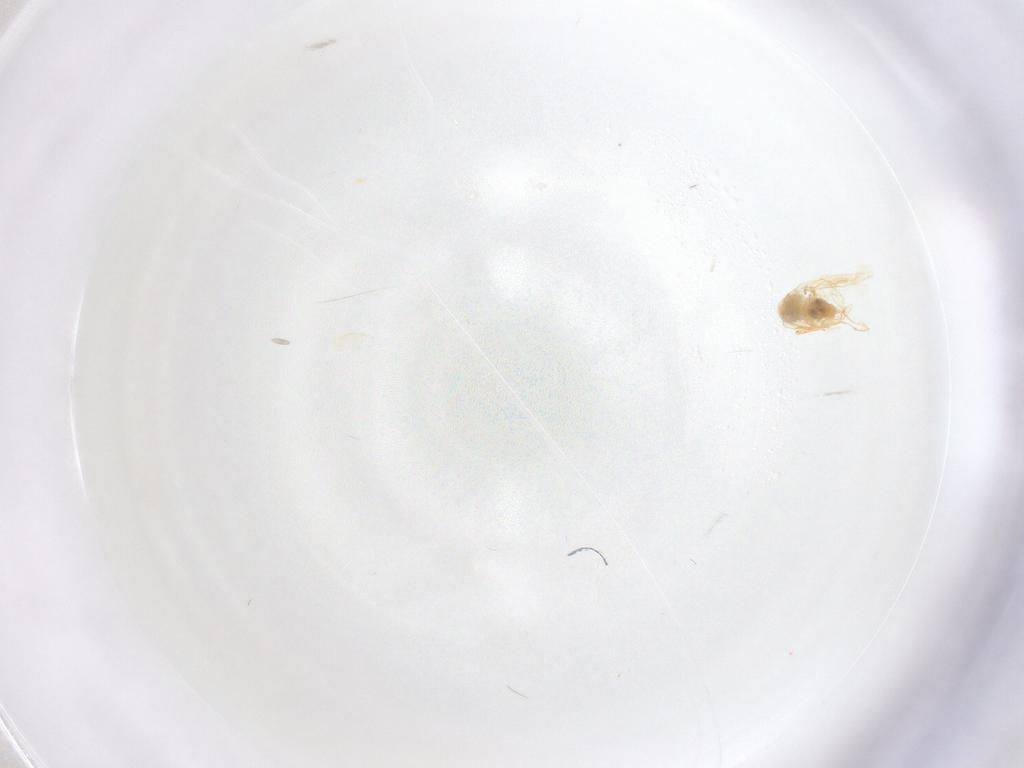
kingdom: Animalia
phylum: Arthropoda
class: Insecta
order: Hemiptera
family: Aleyrodidae
